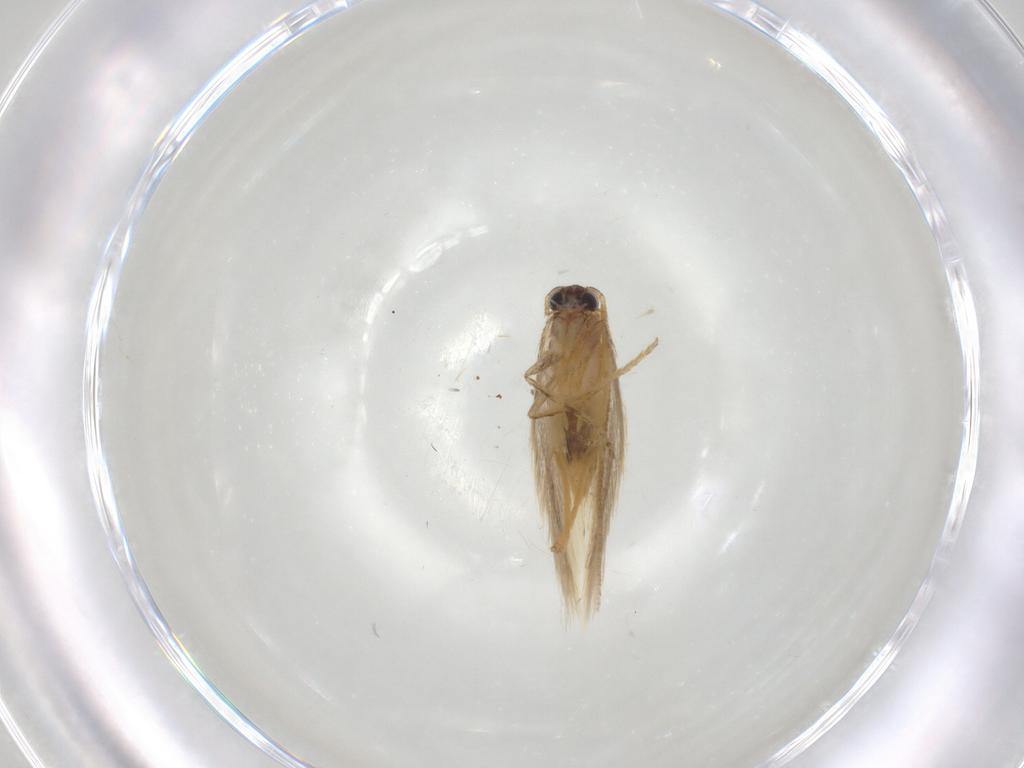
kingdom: Animalia
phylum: Arthropoda
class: Insecta
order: Lepidoptera
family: Tineidae
